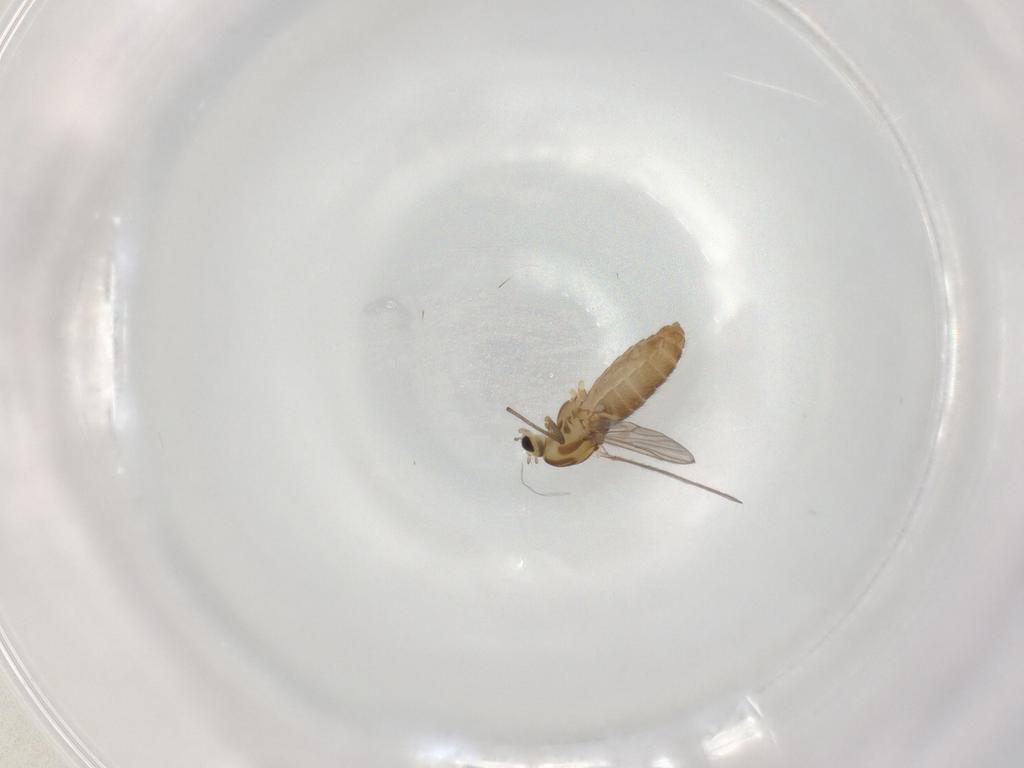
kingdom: Animalia
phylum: Arthropoda
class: Insecta
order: Diptera
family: Chironomidae
